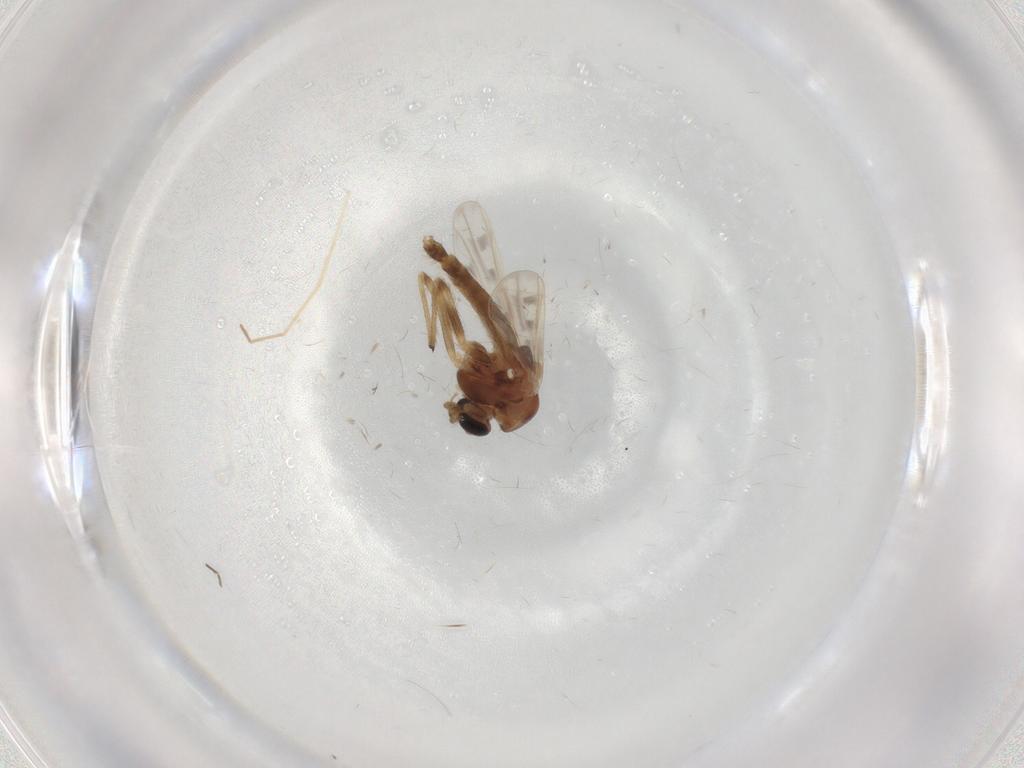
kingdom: Animalia
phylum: Arthropoda
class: Insecta
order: Diptera
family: Chironomidae
